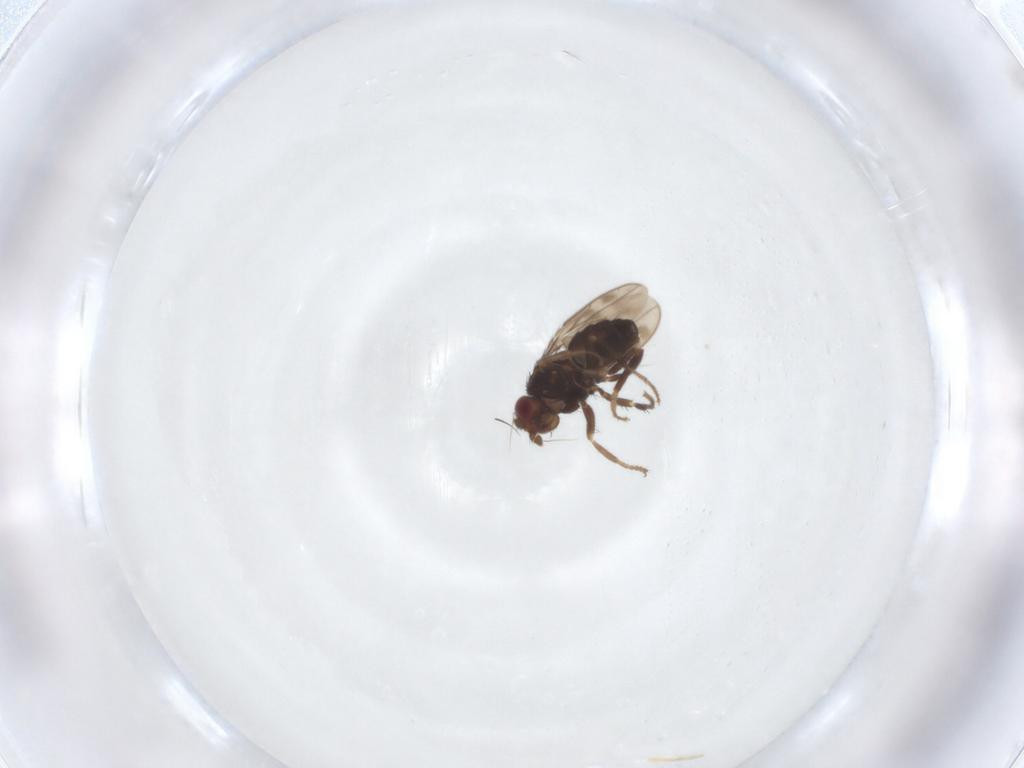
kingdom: Animalia
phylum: Arthropoda
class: Insecta
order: Diptera
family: Sphaeroceridae
